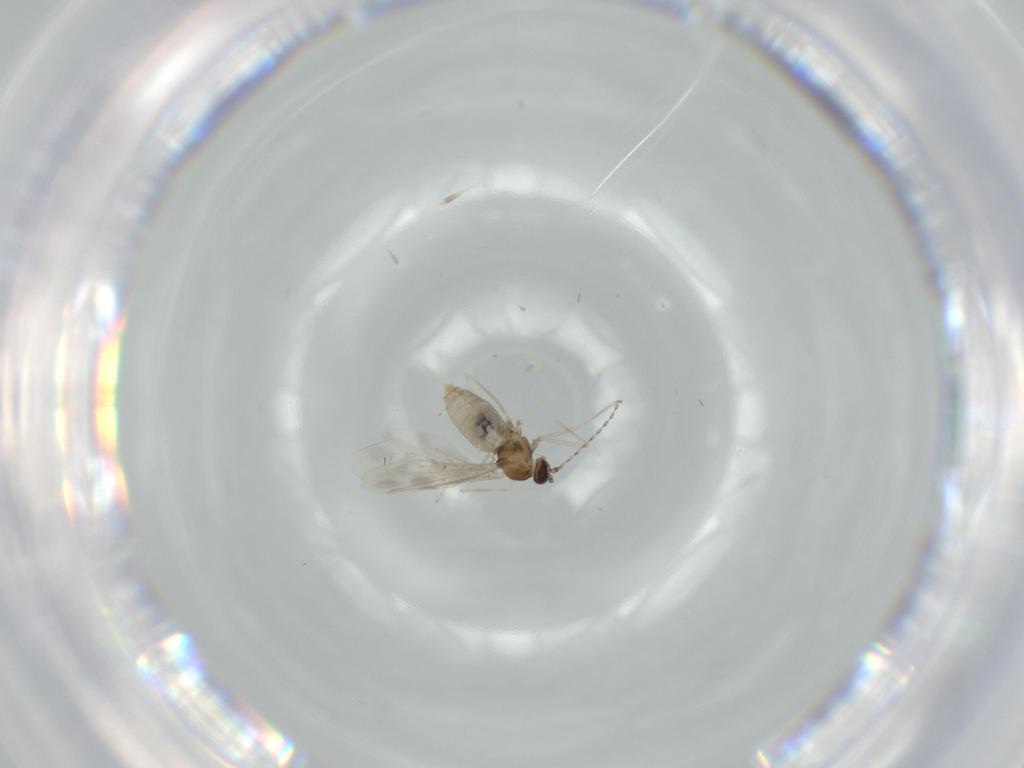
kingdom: Animalia
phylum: Arthropoda
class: Insecta
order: Diptera
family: Cecidomyiidae
